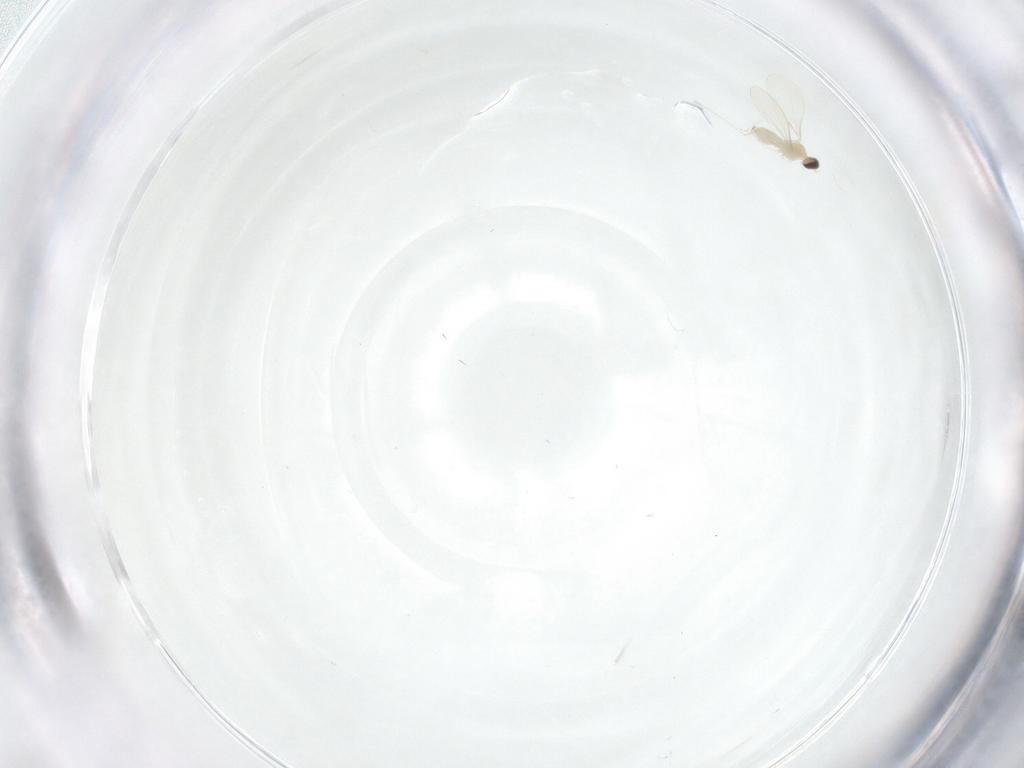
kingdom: Animalia
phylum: Arthropoda
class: Insecta
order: Diptera
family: Cecidomyiidae
